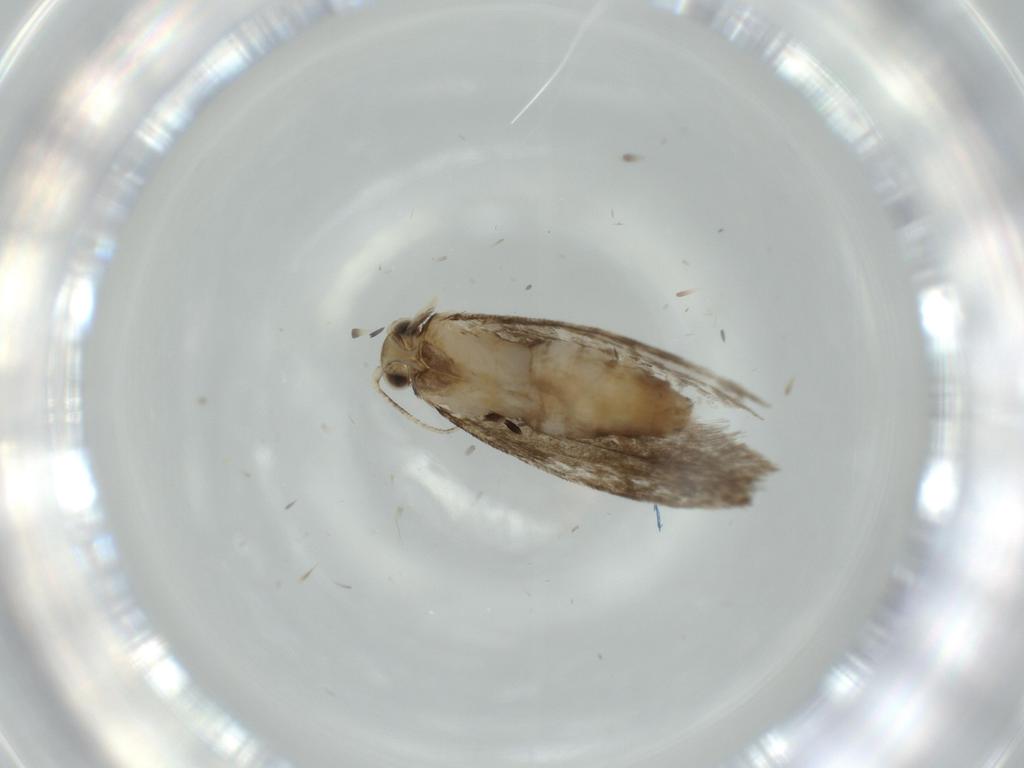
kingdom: Animalia
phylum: Arthropoda
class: Insecta
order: Lepidoptera
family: Tineidae
